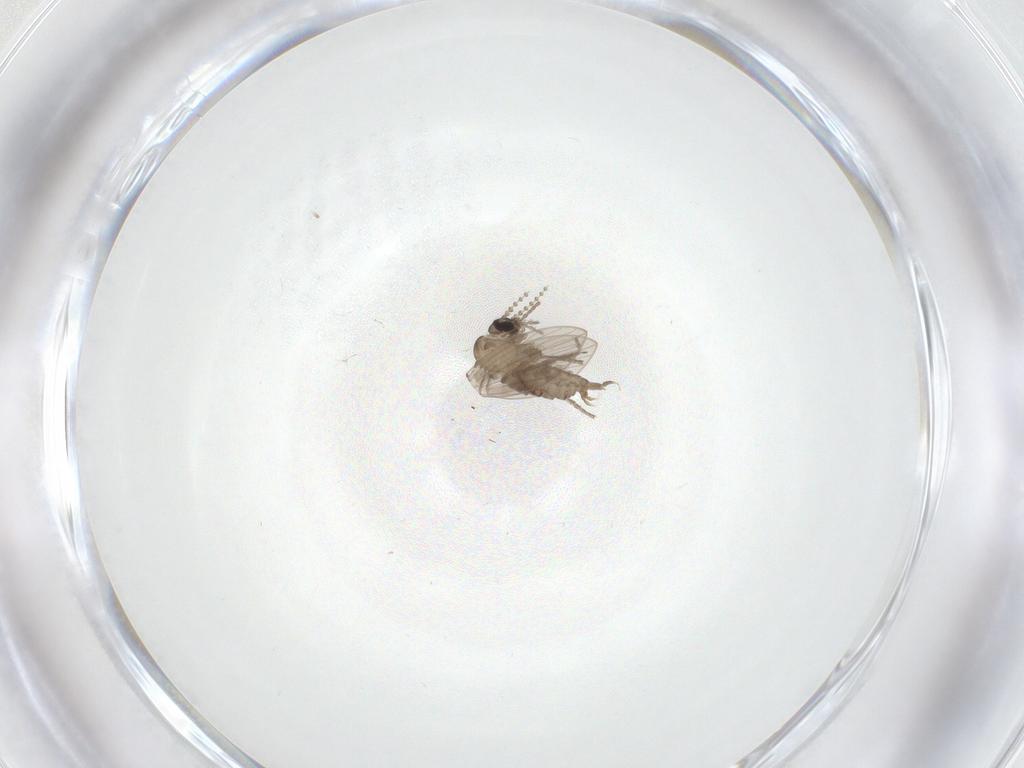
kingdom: Animalia
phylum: Arthropoda
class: Insecta
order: Diptera
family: Psychodidae
